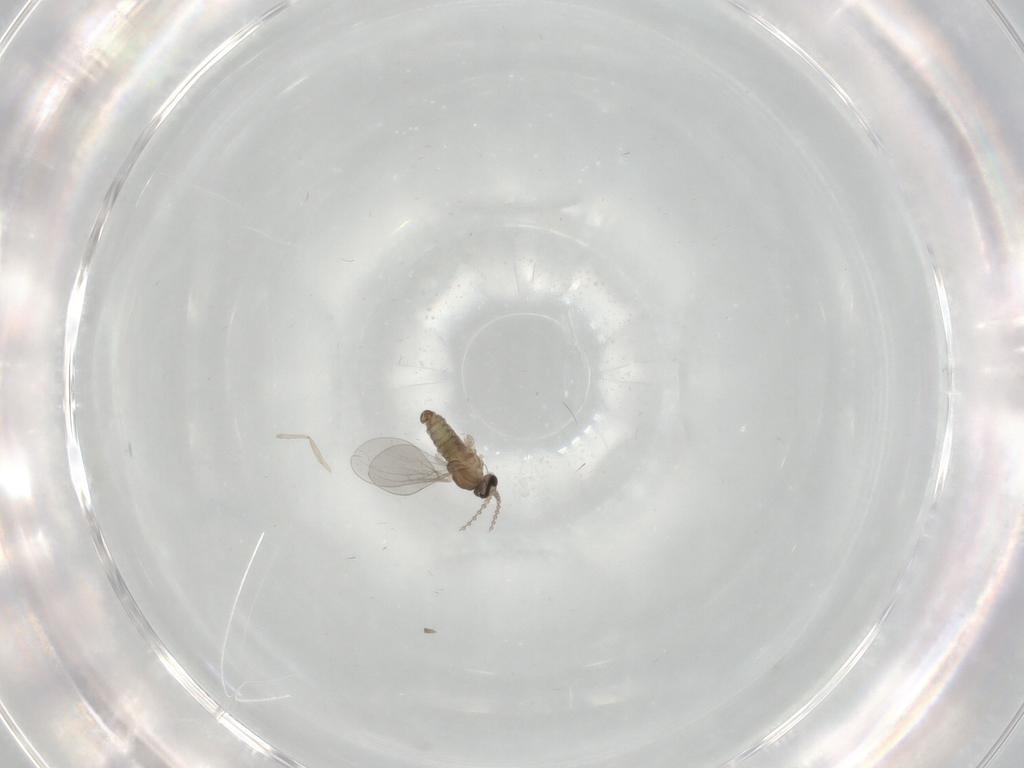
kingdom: Animalia
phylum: Arthropoda
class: Insecta
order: Diptera
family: Cecidomyiidae
